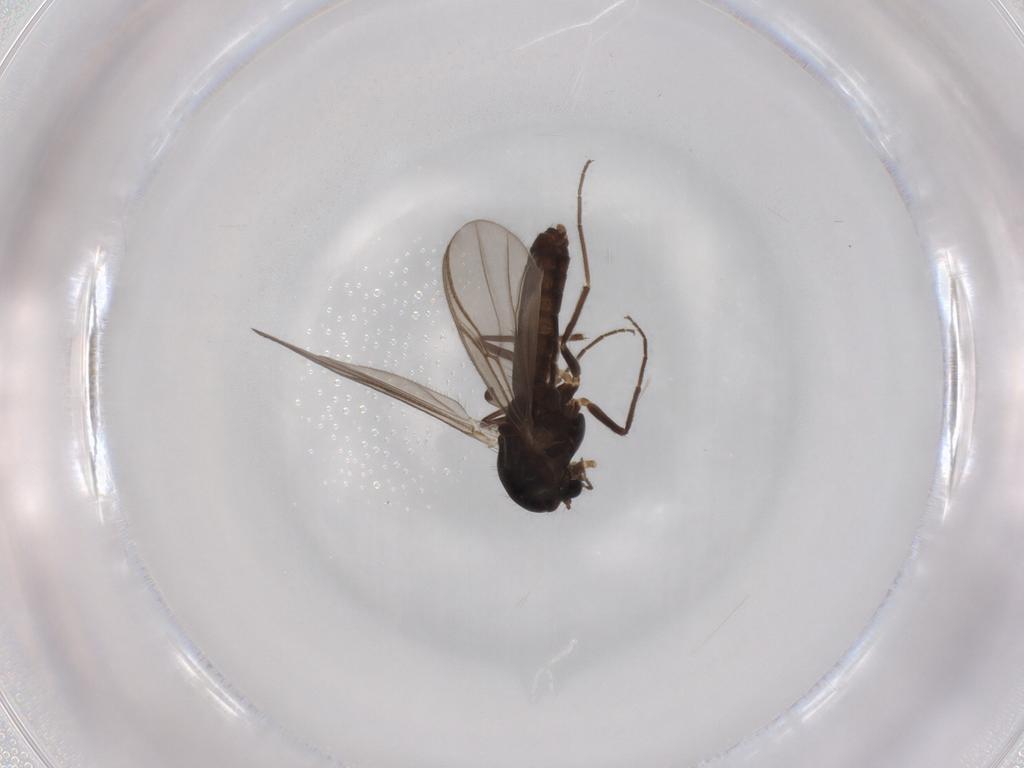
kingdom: Animalia
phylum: Arthropoda
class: Insecta
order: Diptera
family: Chironomidae
